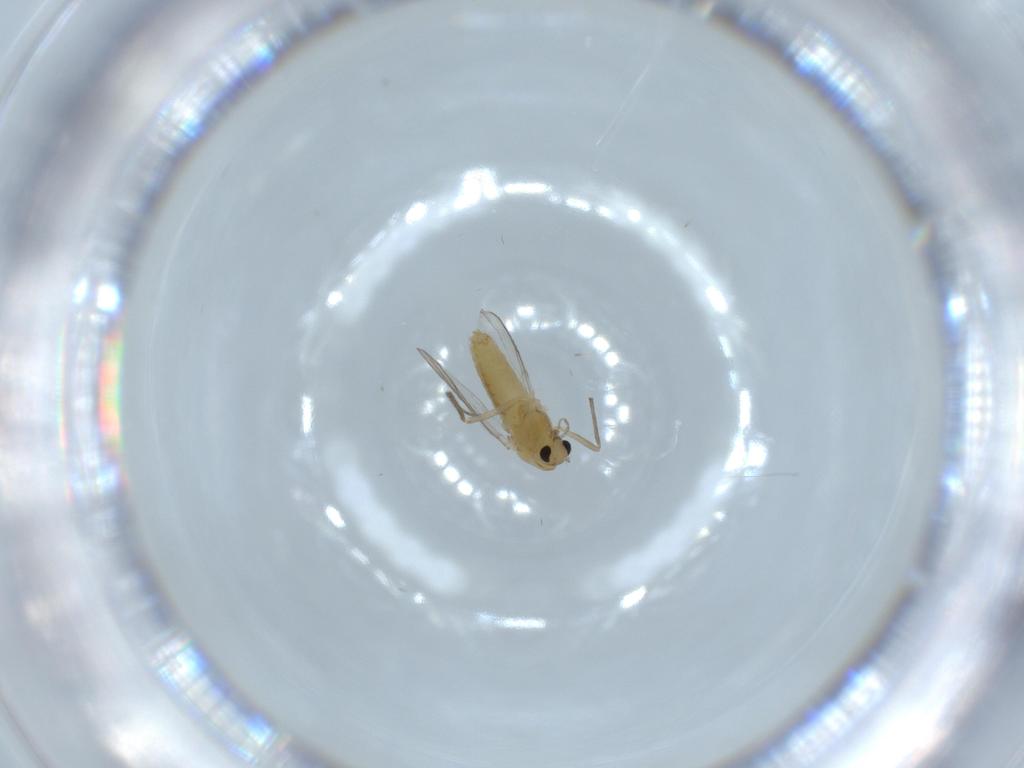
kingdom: Animalia
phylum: Arthropoda
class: Insecta
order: Diptera
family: Chironomidae
